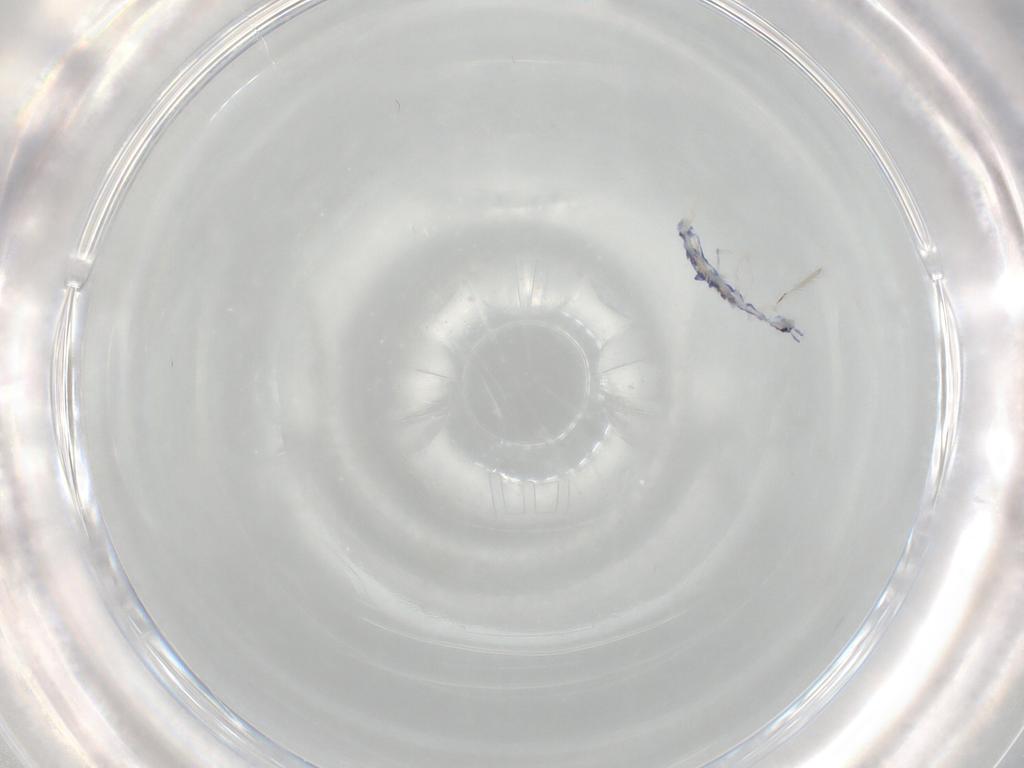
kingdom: Animalia
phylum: Arthropoda
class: Collembola
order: Entomobryomorpha
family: Entomobryidae
